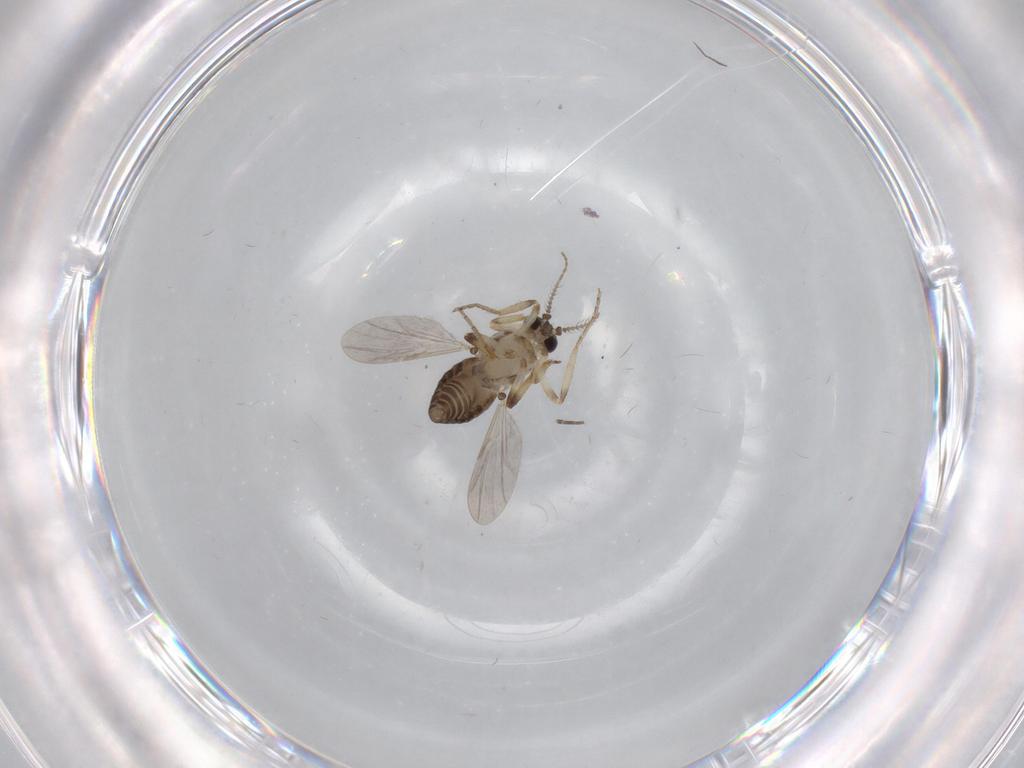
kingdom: Animalia
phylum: Arthropoda
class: Insecta
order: Diptera
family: Ceratopogonidae
